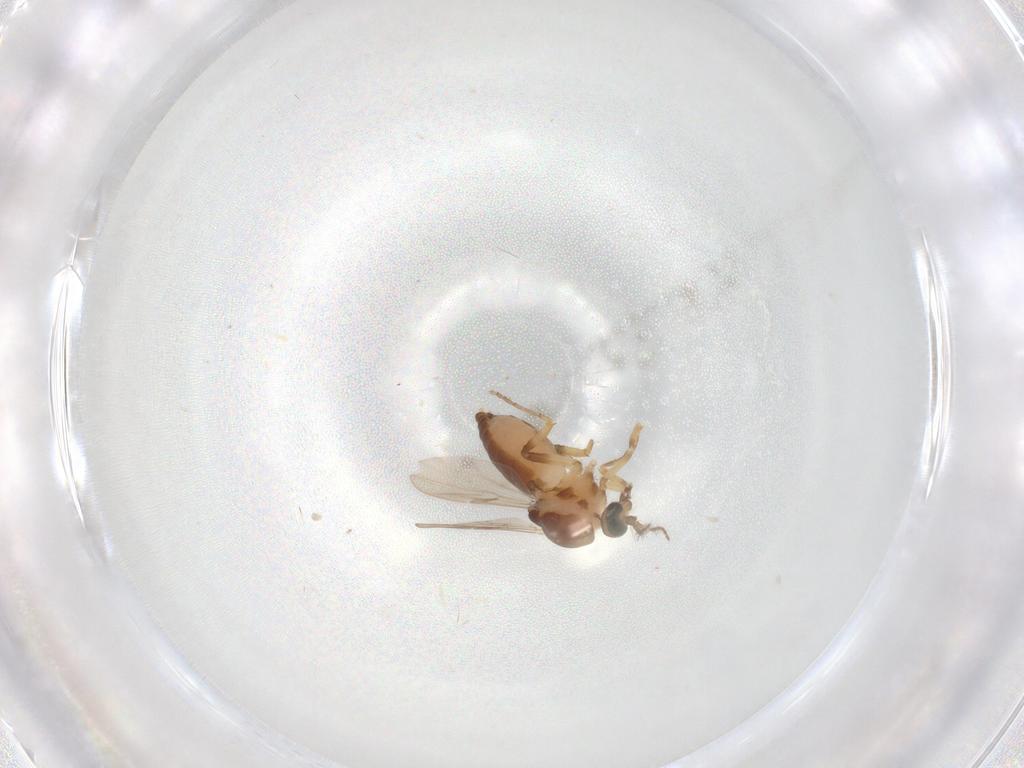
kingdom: Animalia
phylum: Arthropoda
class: Insecta
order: Diptera
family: Ceratopogonidae
